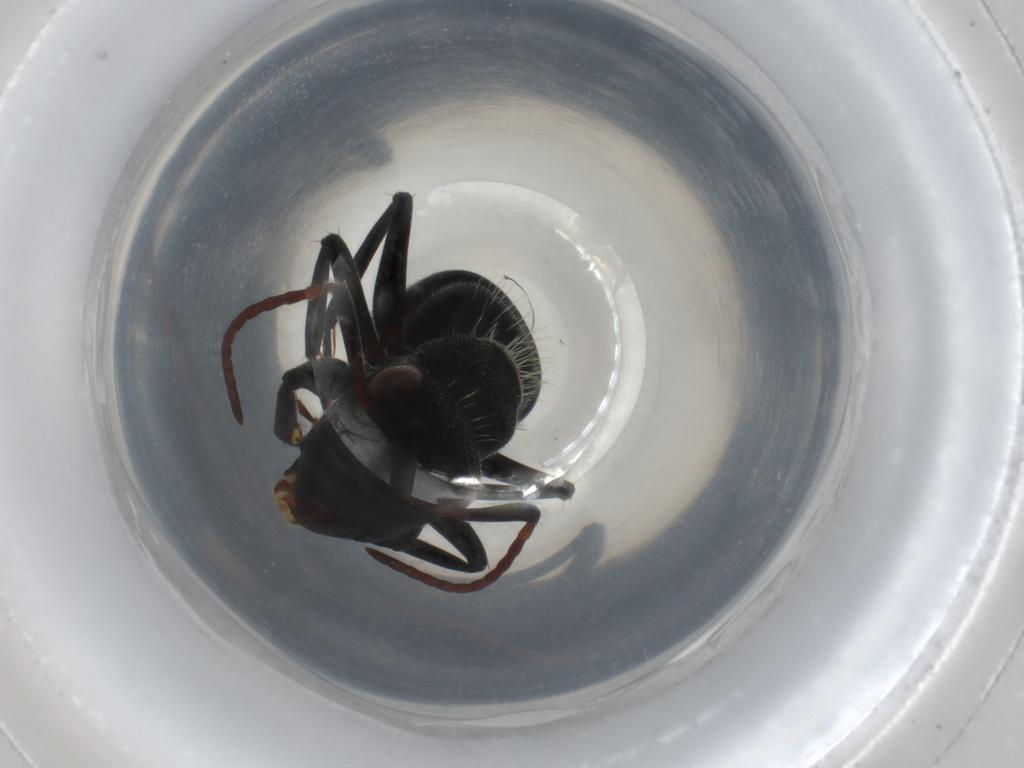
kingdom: Animalia
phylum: Arthropoda
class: Insecta
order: Hymenoptera
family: Formicidae
